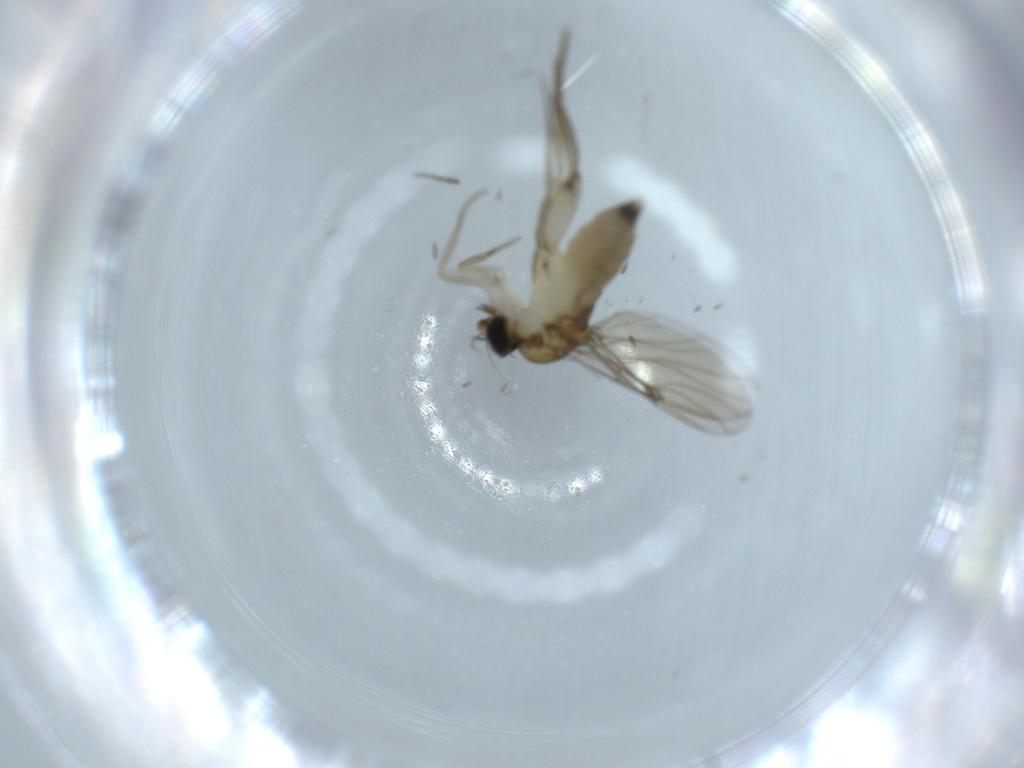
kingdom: Animalia
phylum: Arthropoda
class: Insecta
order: Diptera
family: Phoridae
